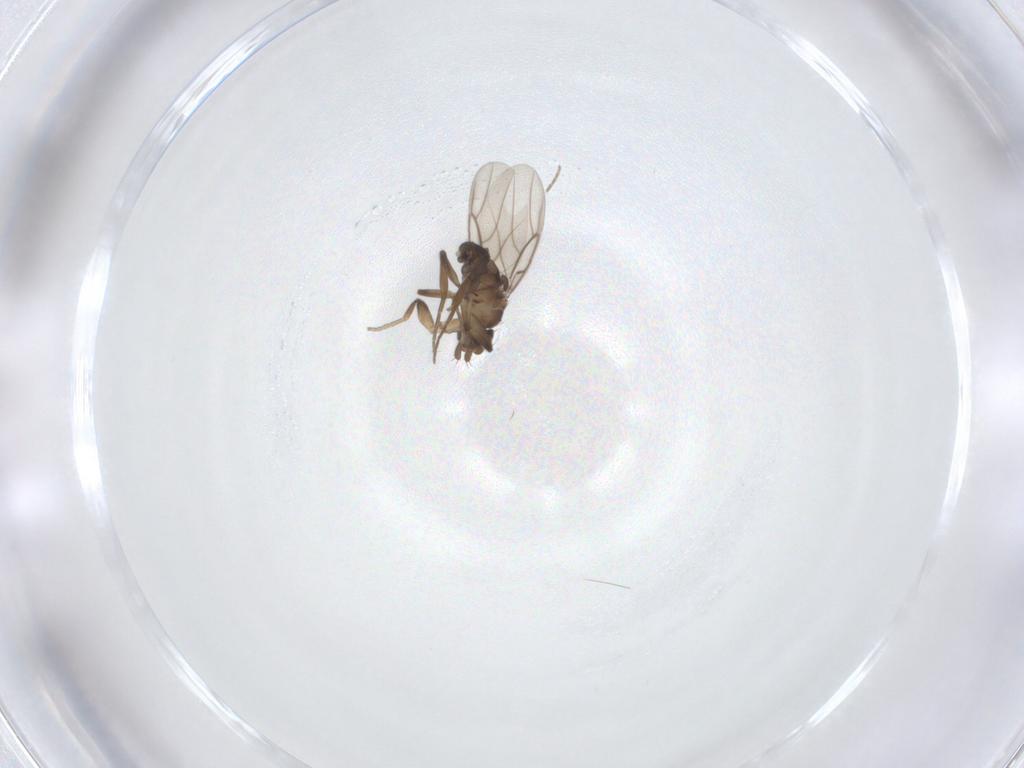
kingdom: Animalia
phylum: Arthropoda
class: Insecta
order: Diptera
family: Phoridae
